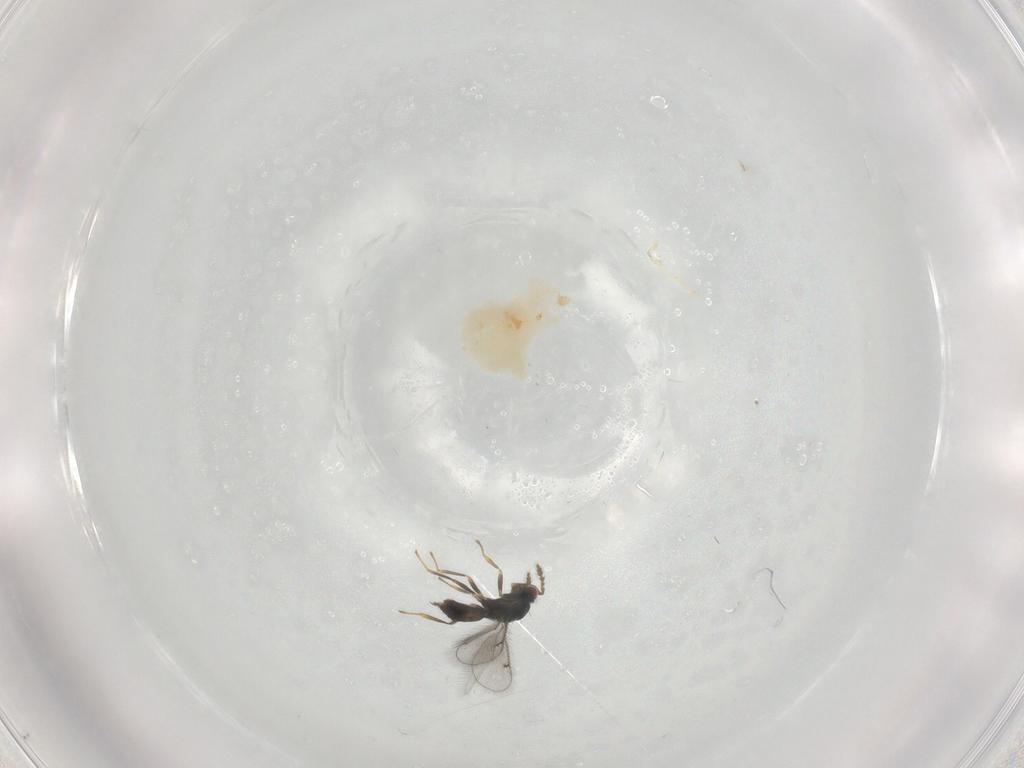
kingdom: Animalia
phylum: Arthropoda
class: Insecta
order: Hymenoptera
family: Eulophidae
